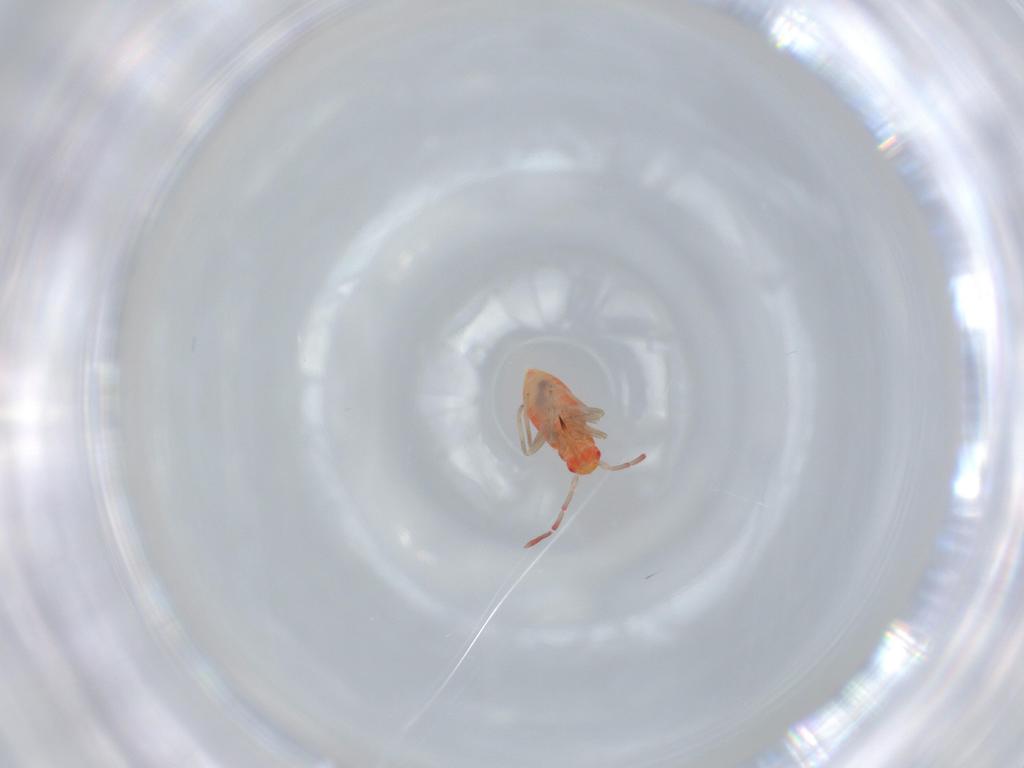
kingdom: Animalia
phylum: Arthropoda
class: Insecta
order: Hemiptera
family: Miridae
